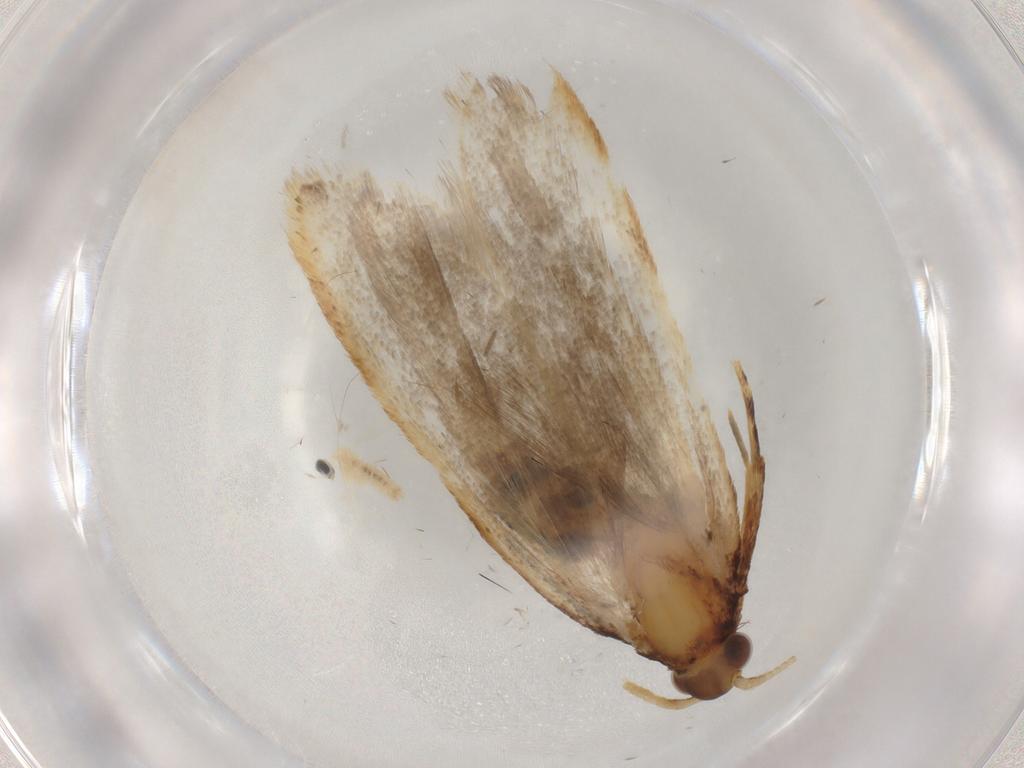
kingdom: Animalia
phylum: Arthropoda
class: Insecta
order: Lepidoptera
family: Lecithoceridae
